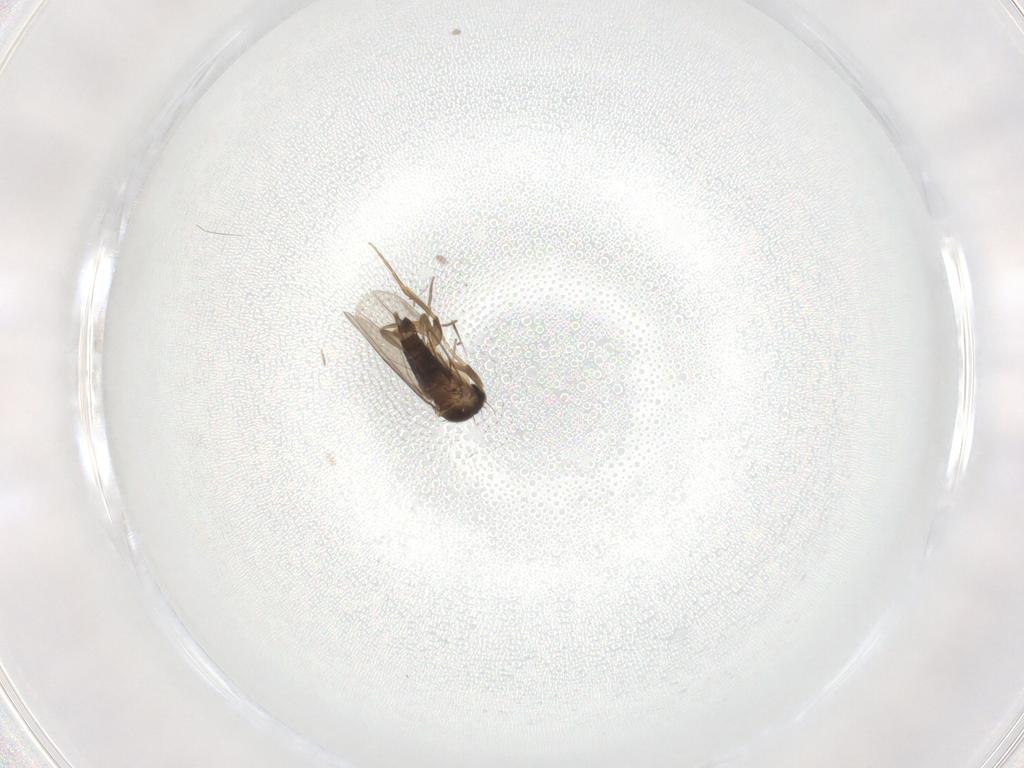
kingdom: Animalia
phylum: Arthropoda
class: Insecta
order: Diptera
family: Phoridae
